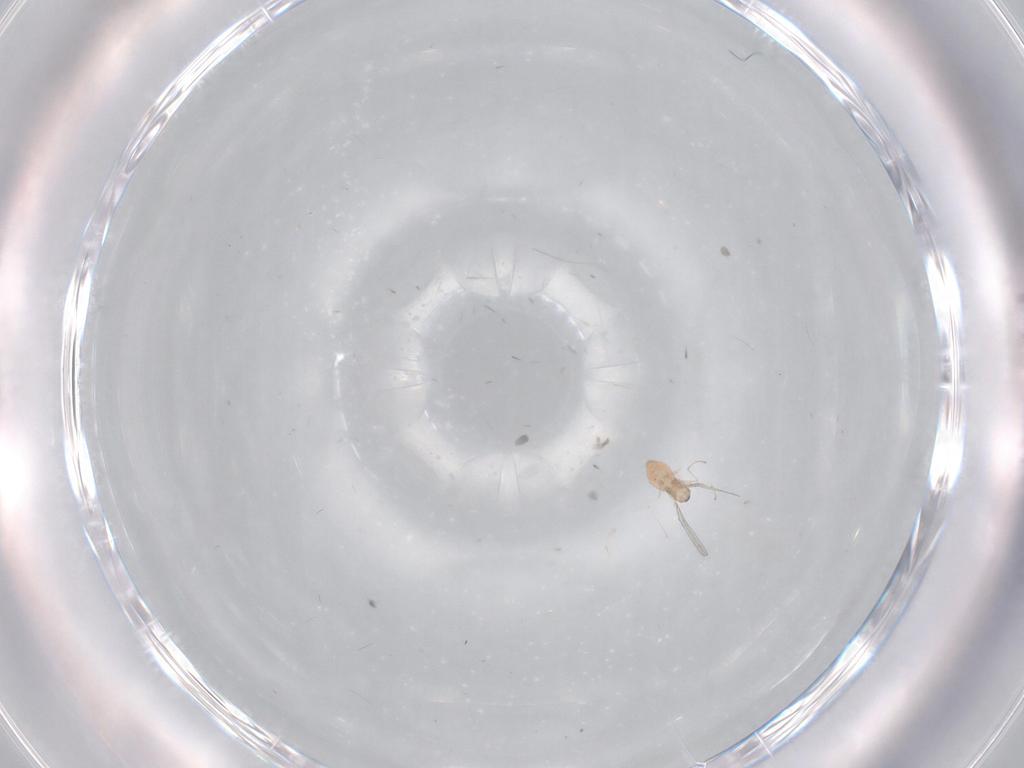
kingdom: Animalia
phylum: Arthropoda
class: Insecta
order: Diptera
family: Cecidomyiidae
